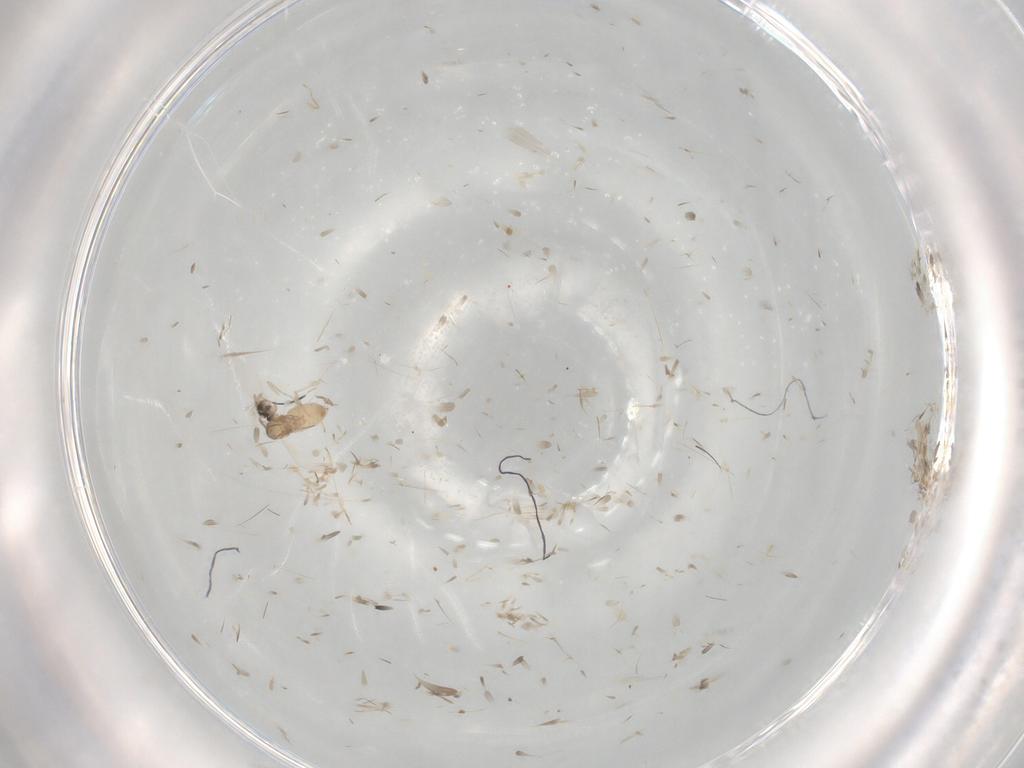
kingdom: Animalia
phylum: Arthropoda
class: Insecta
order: Diptera
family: Cecidomyiidae
